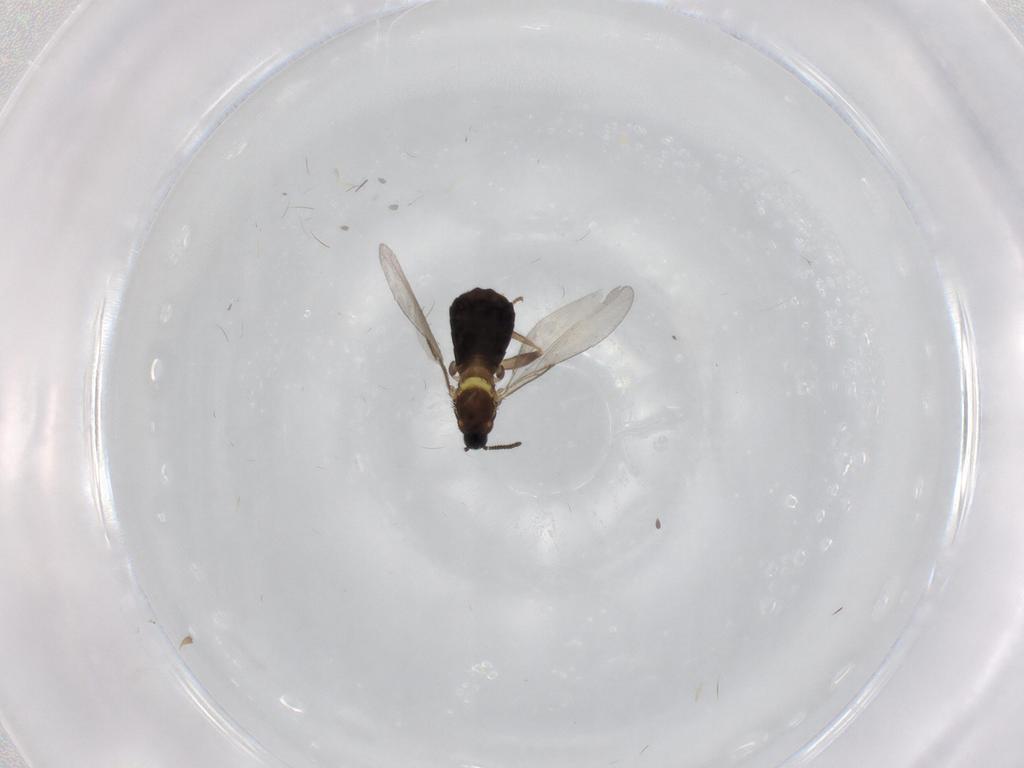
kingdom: Animalia
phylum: Arthropoda
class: Insecta
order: Diptera
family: Scatopsidae
